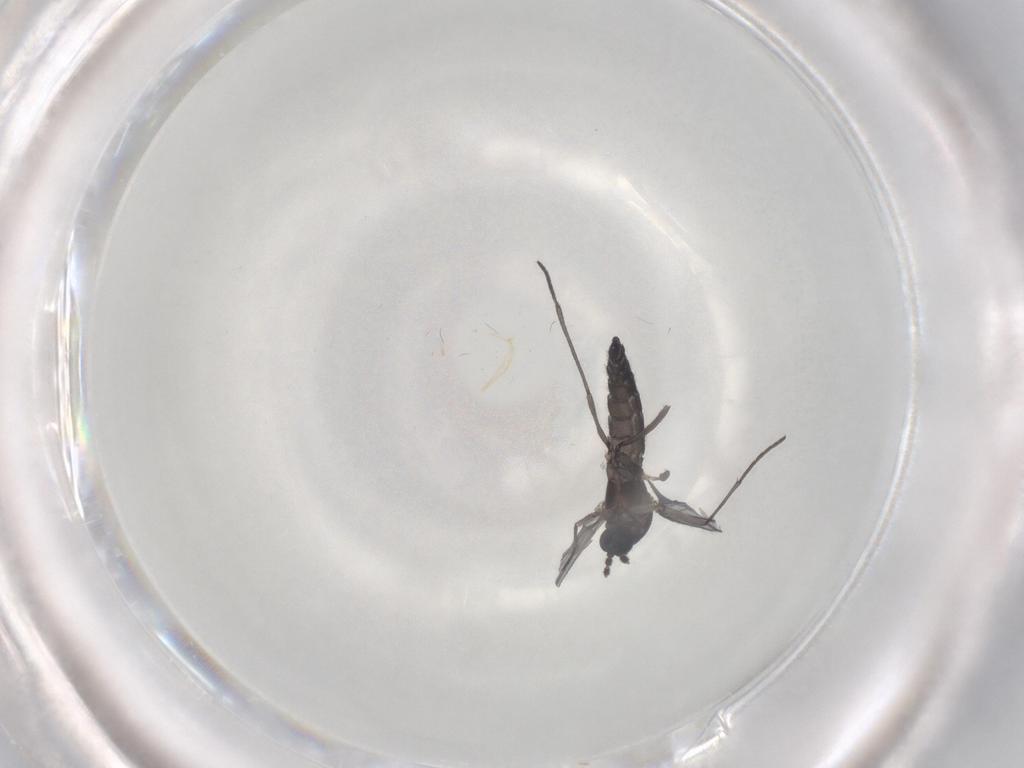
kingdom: Animalia
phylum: Arthropoda
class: Insecta
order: Diptera
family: Sciaridae
